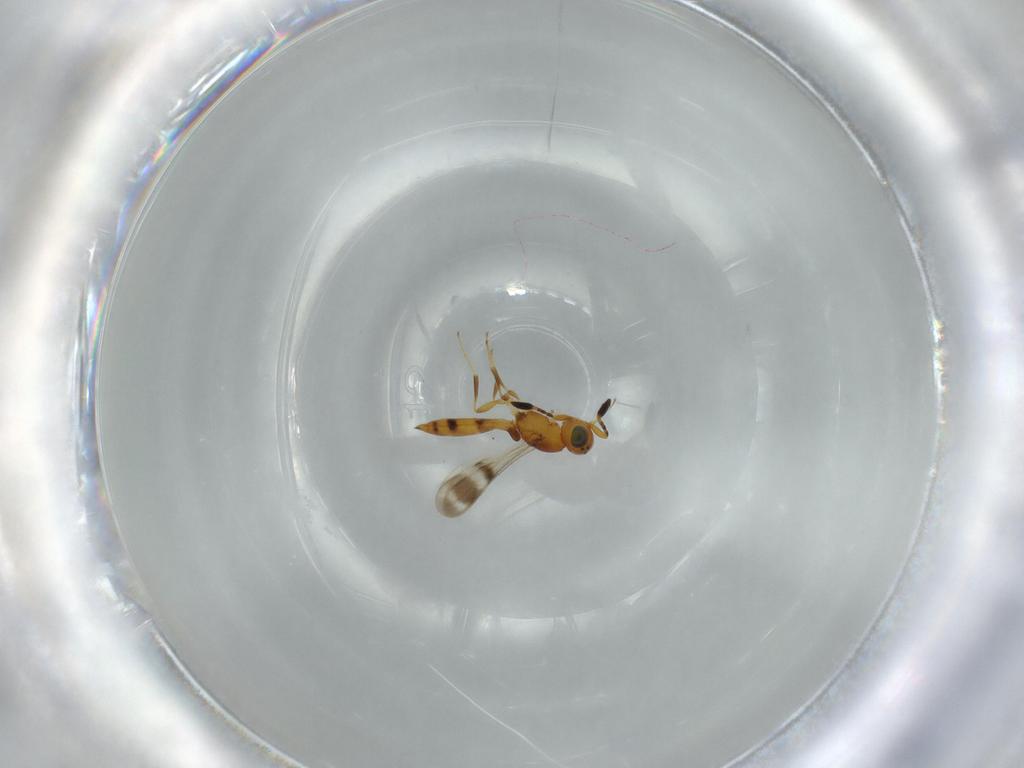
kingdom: Animalia
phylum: Arthropoda
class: Insecta
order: Hymenoptera
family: Scelionidae
